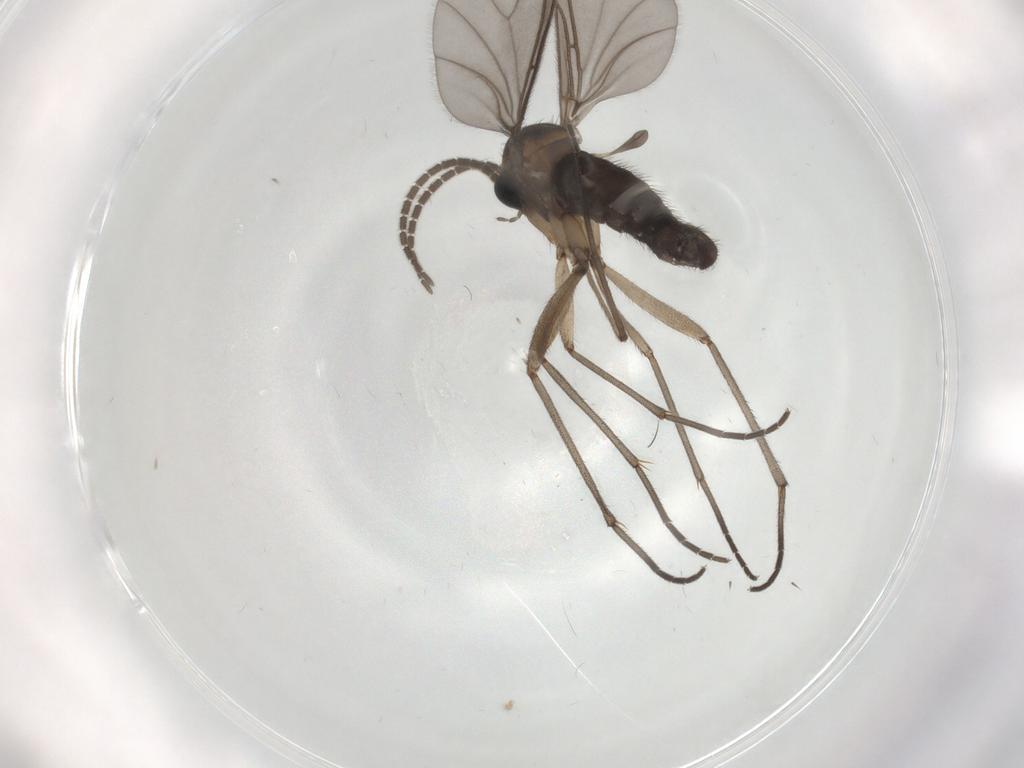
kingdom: Animalia
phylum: Arthropoda
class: Insecta
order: Diptera
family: Sciaridae
